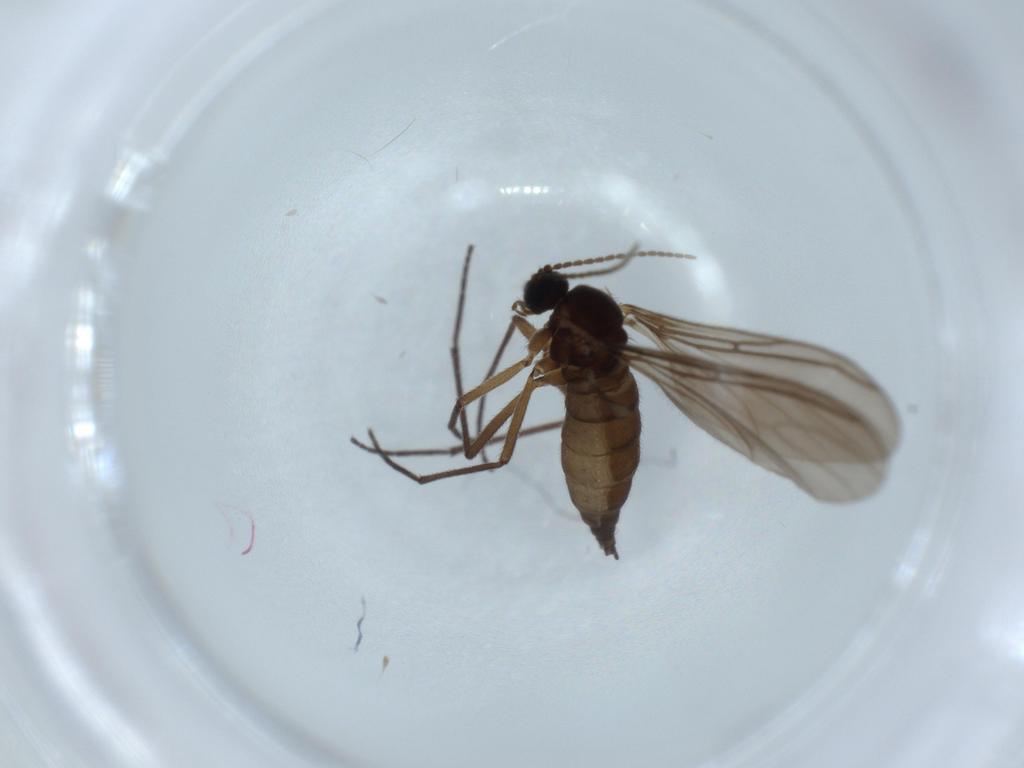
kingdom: Animalia
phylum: Arthropoda
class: Insecta
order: Diptera
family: Sciaridae
